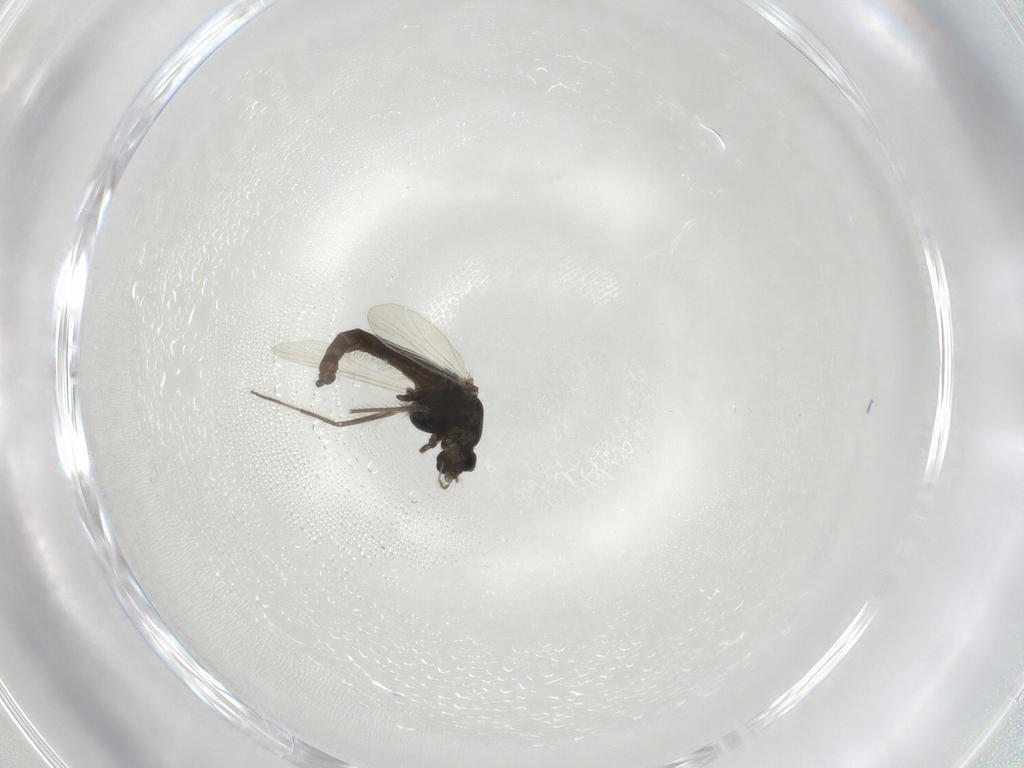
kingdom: Animalia
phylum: Arthropoda
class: Insecta
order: Diptera
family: Chironomidae
